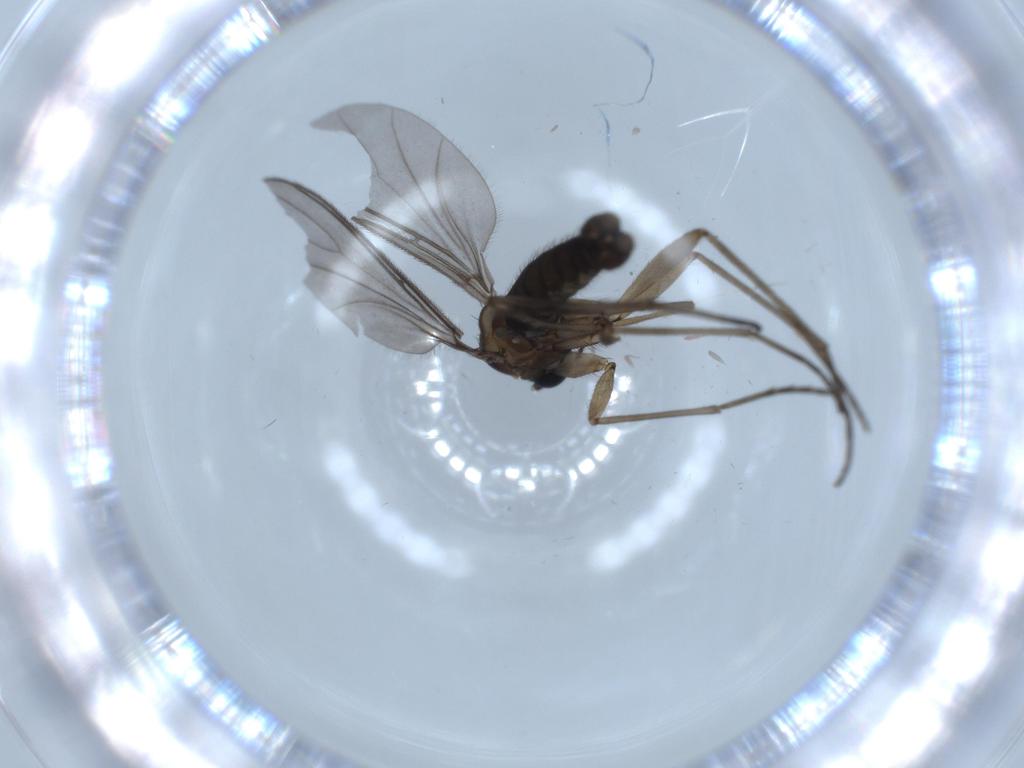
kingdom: Animalia
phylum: Arthropoda
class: Insecta
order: Diptera
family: Sciaridae
